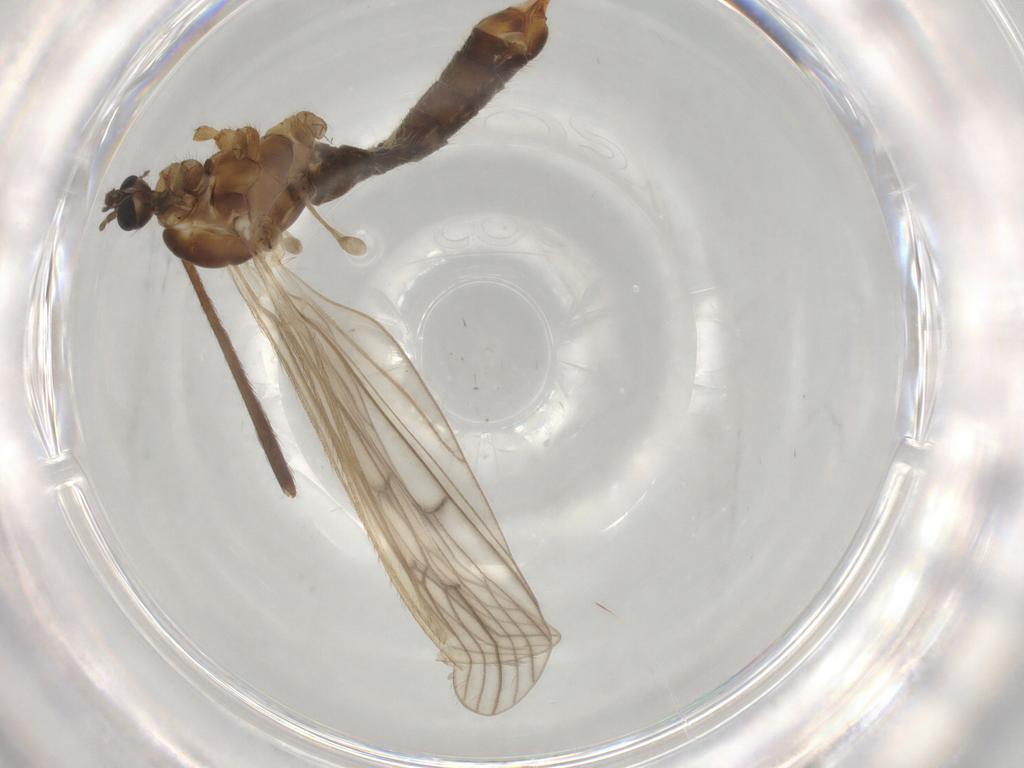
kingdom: Animalia
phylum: Arthropoda
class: Insecta
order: Diptera
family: Limoniidae
